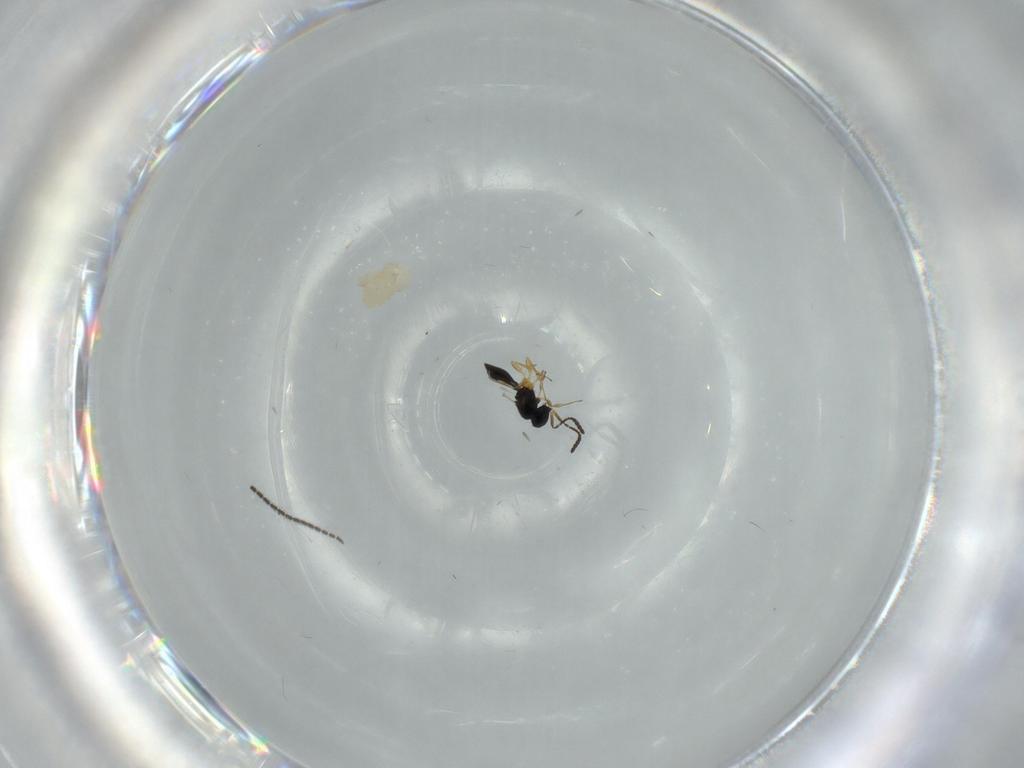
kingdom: Animalia
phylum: Arthropoda
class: Insecta
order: Hymenoptera
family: Scelionidae
